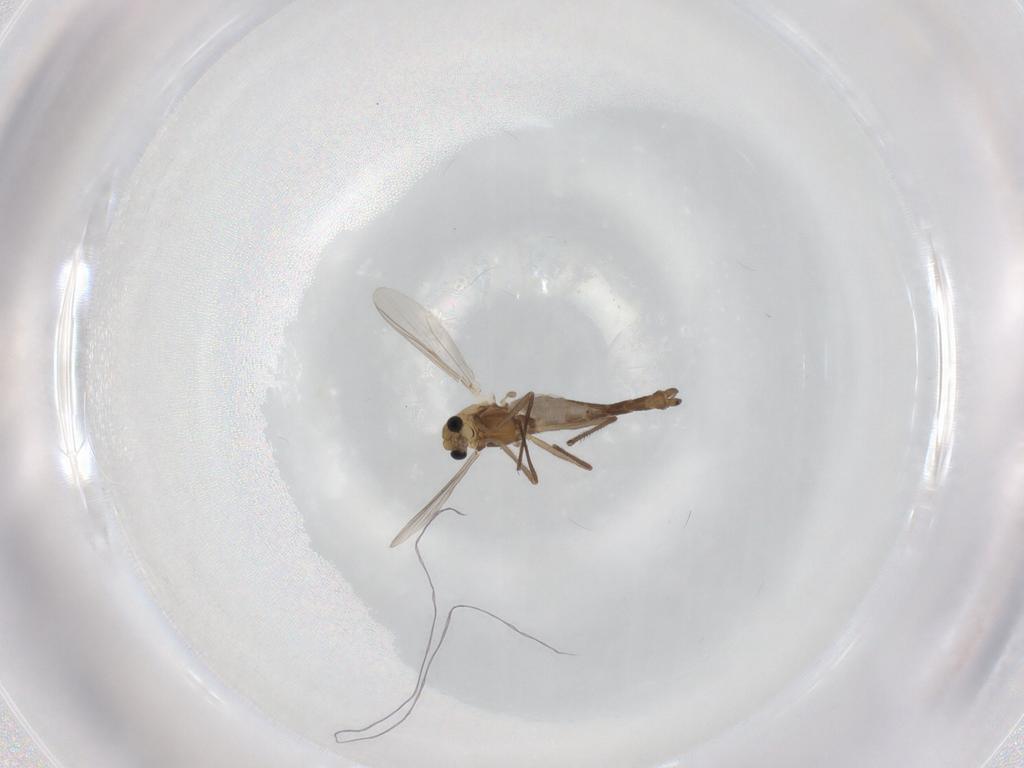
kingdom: Animalia
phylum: Arthropoda
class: Insecta
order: Diptera
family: Chironomidae
